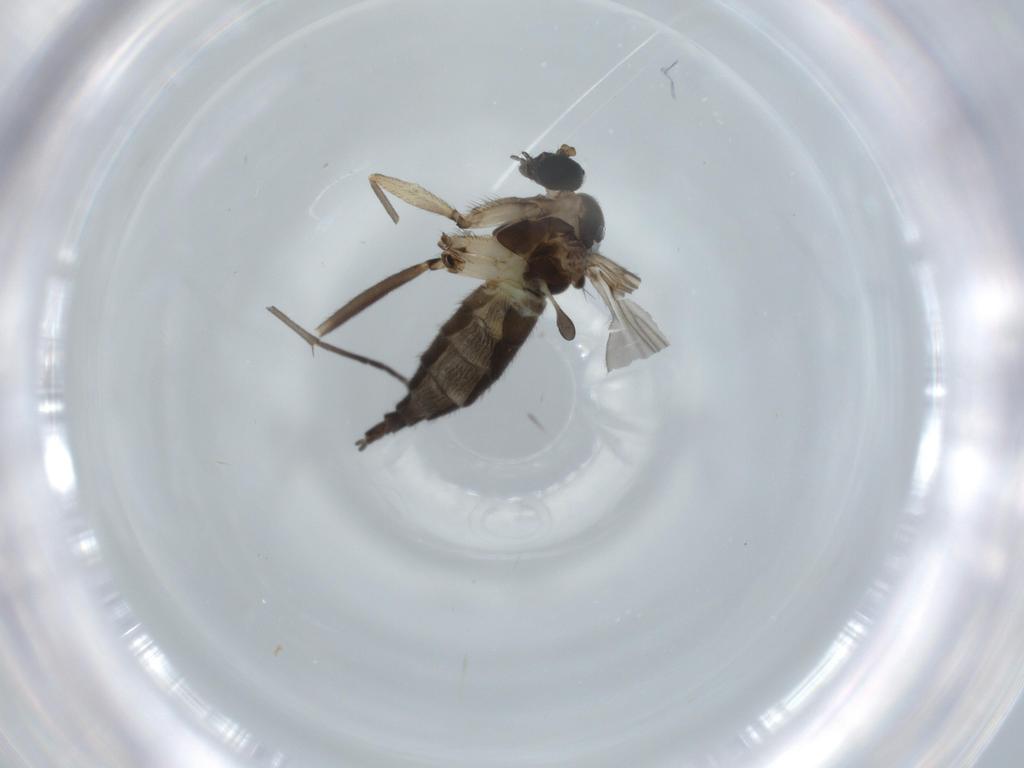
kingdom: Animalia
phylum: Arthropoda
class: Insecta
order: Diptera
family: Sciaridae
